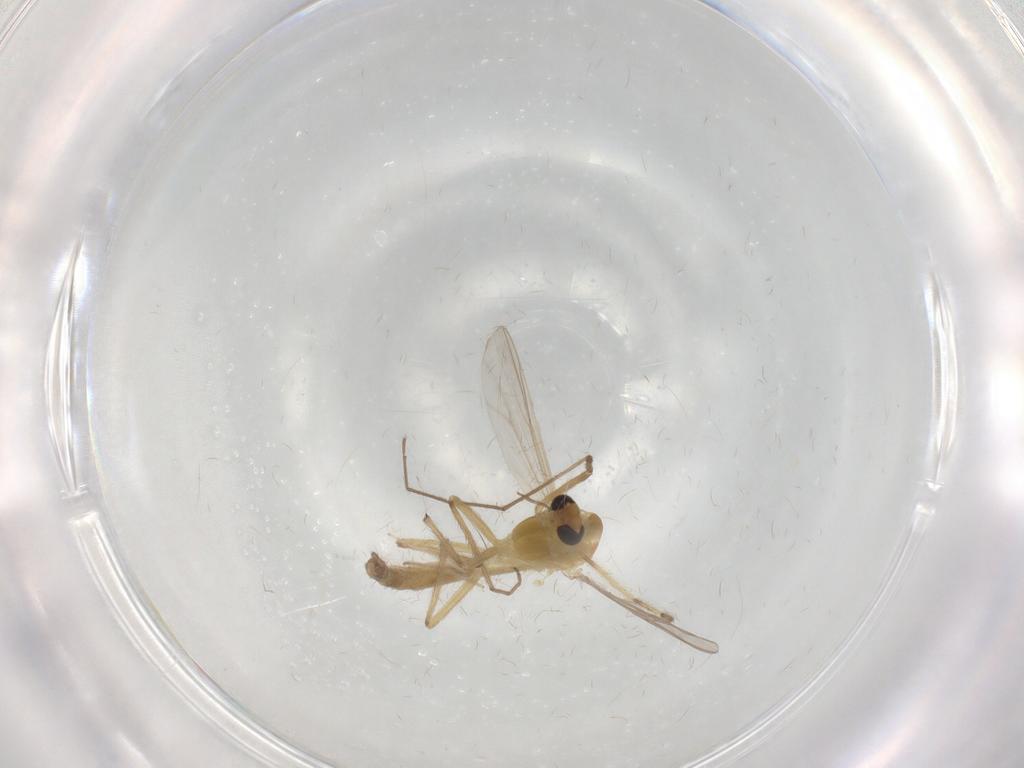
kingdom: Animalia
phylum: Arthropoda
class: Insecta
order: Diptera
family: Chironomidae
